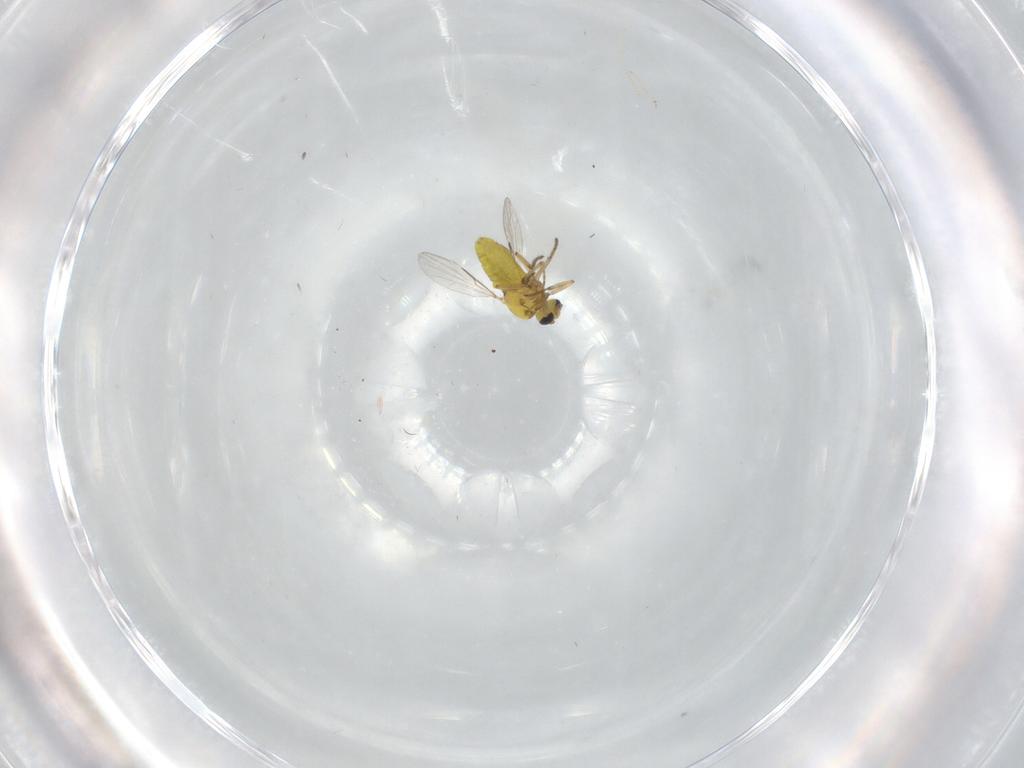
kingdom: Animalia
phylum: Arthropoda
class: Insecta
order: Diptera
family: Ceratopogonidae
